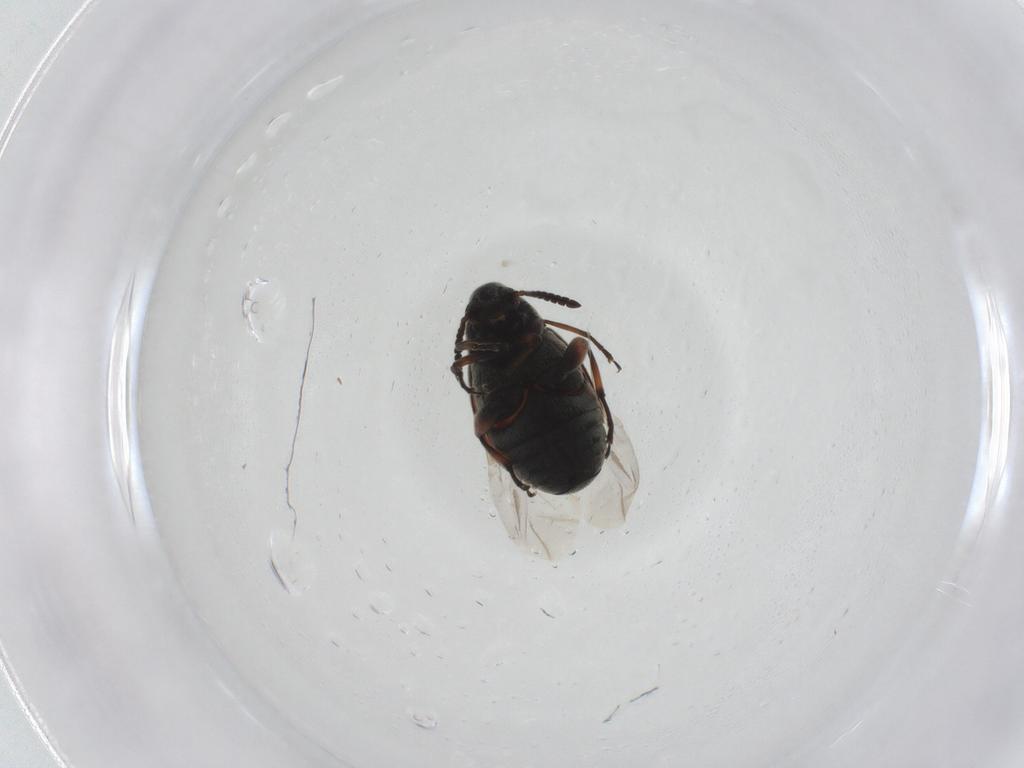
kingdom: Animalia
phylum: Arthropoda
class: Insecta
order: Coleoptera
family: Chrysomelidae
